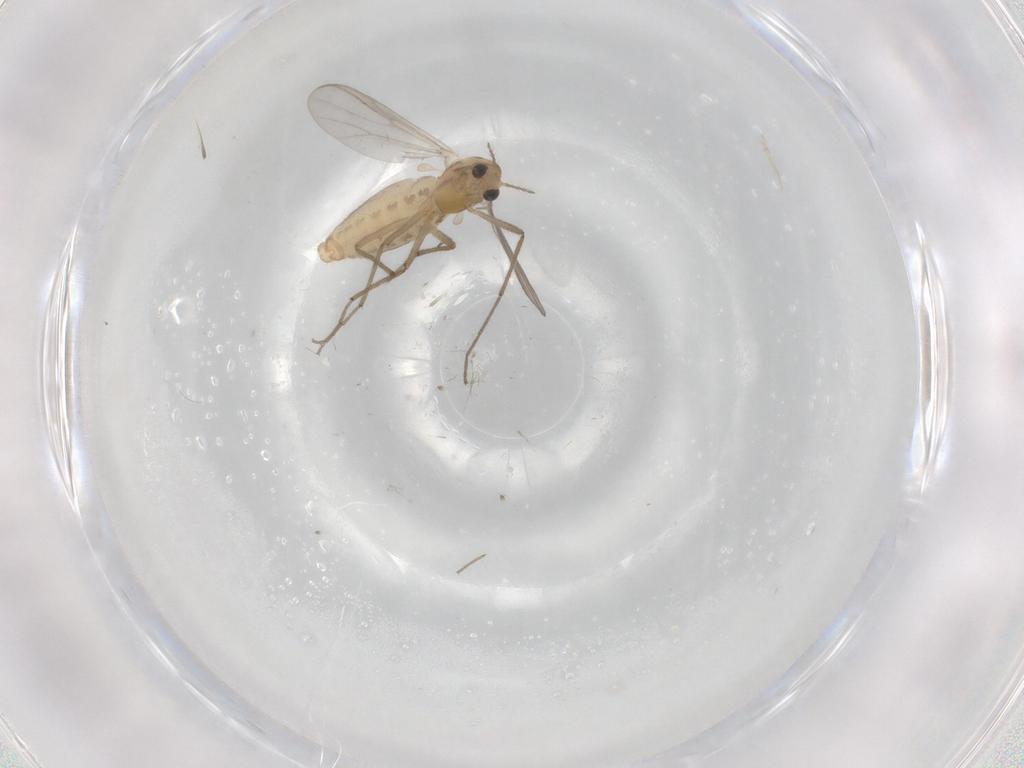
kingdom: Animalia
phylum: Arthropoda
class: Insecta
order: Diptera
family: Chironomidae
